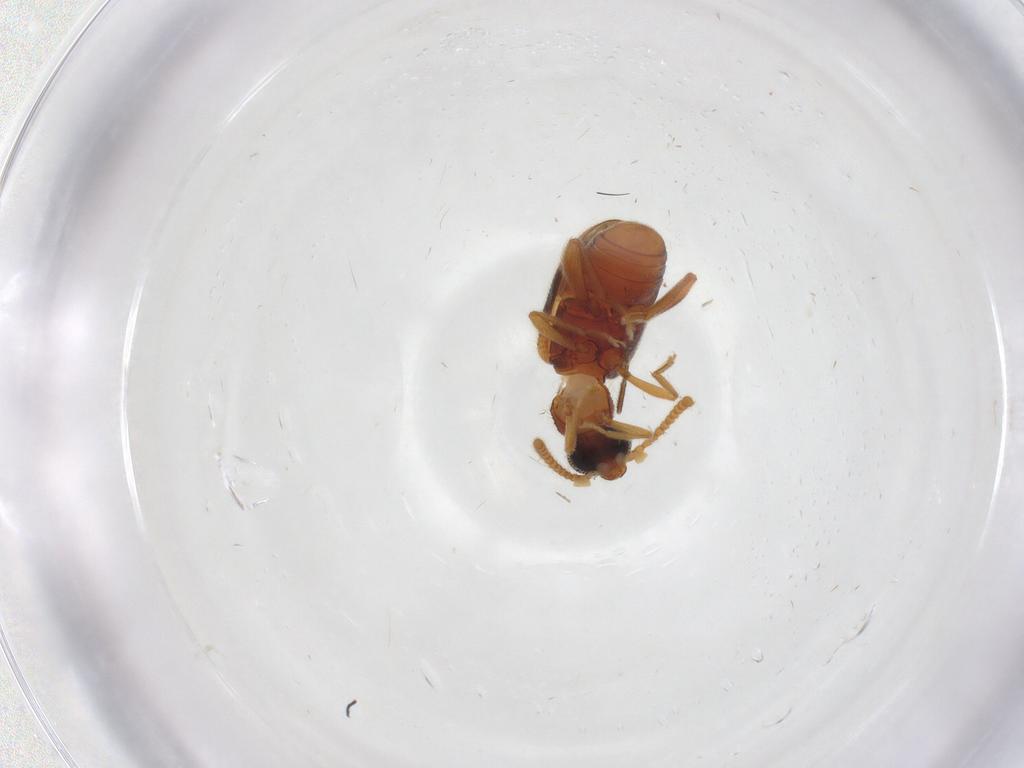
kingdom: Animalia
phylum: Arthropoda
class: Insecta
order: Coleoptera
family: Aderidae
